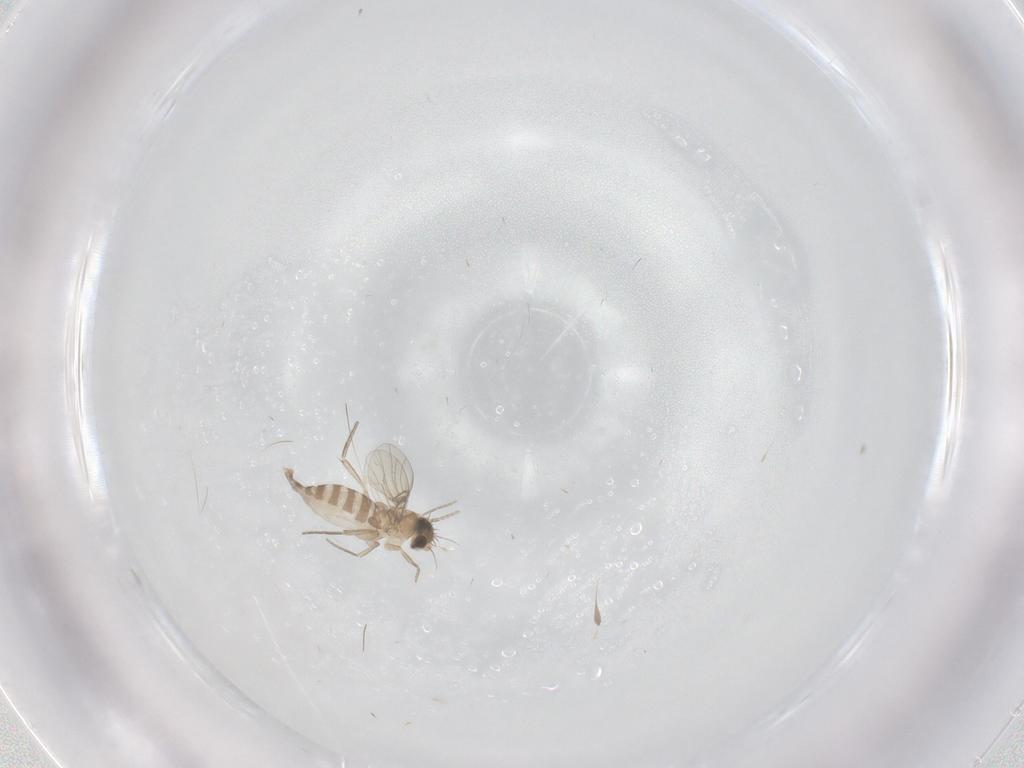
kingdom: Animalia
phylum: Arthropoda
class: Insecta
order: Diptera
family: Phoridae
